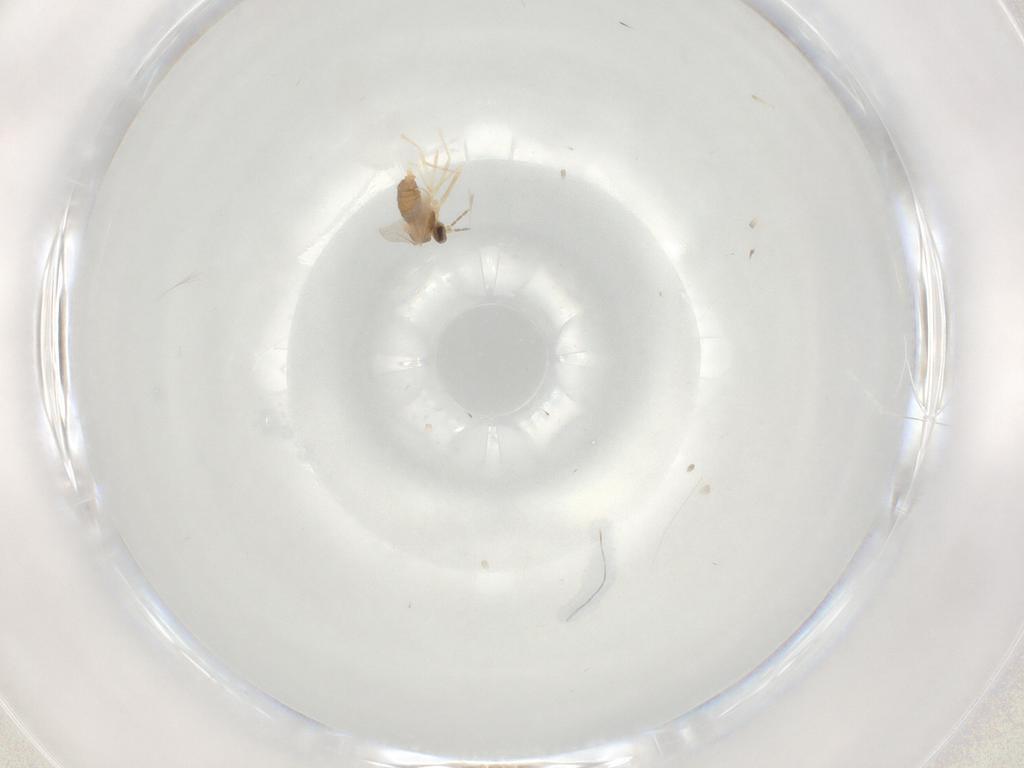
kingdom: Animalia
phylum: Arthropoda
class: Insecta
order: Diptera
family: Cecidomyiidae
